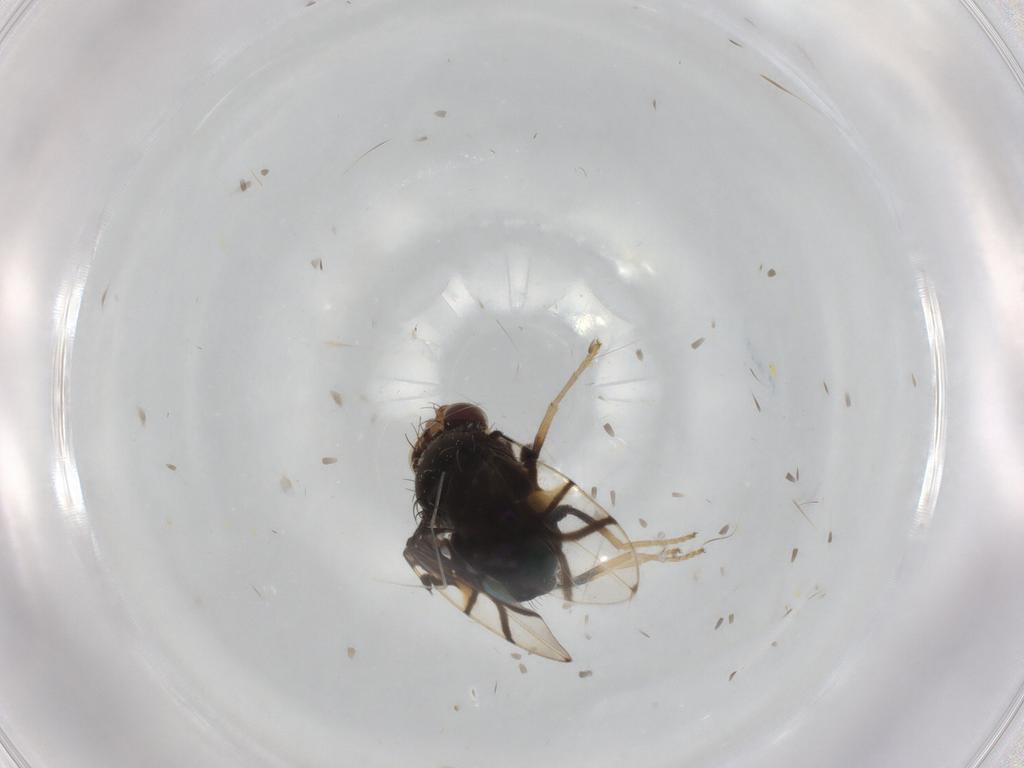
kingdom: Animalia
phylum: Arthropoda
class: Insecta
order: Diptera
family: Tephritidae
